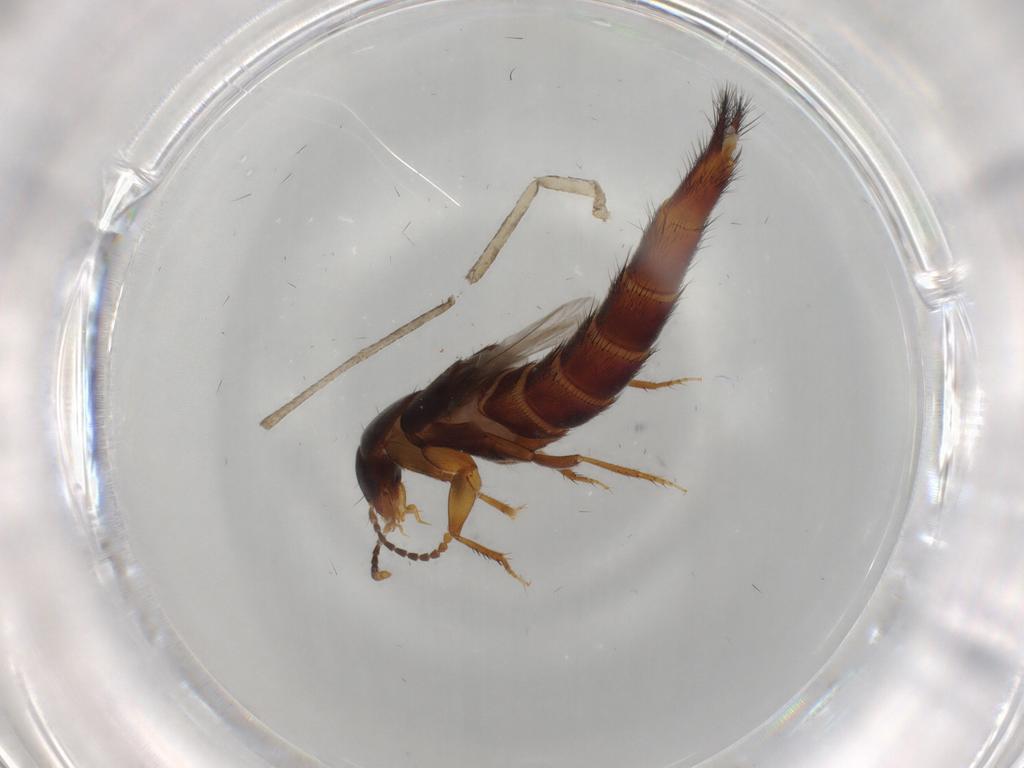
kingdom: Animalia
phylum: Arthropoda
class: Insecta
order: Coleoptera
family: Staphylinidae
